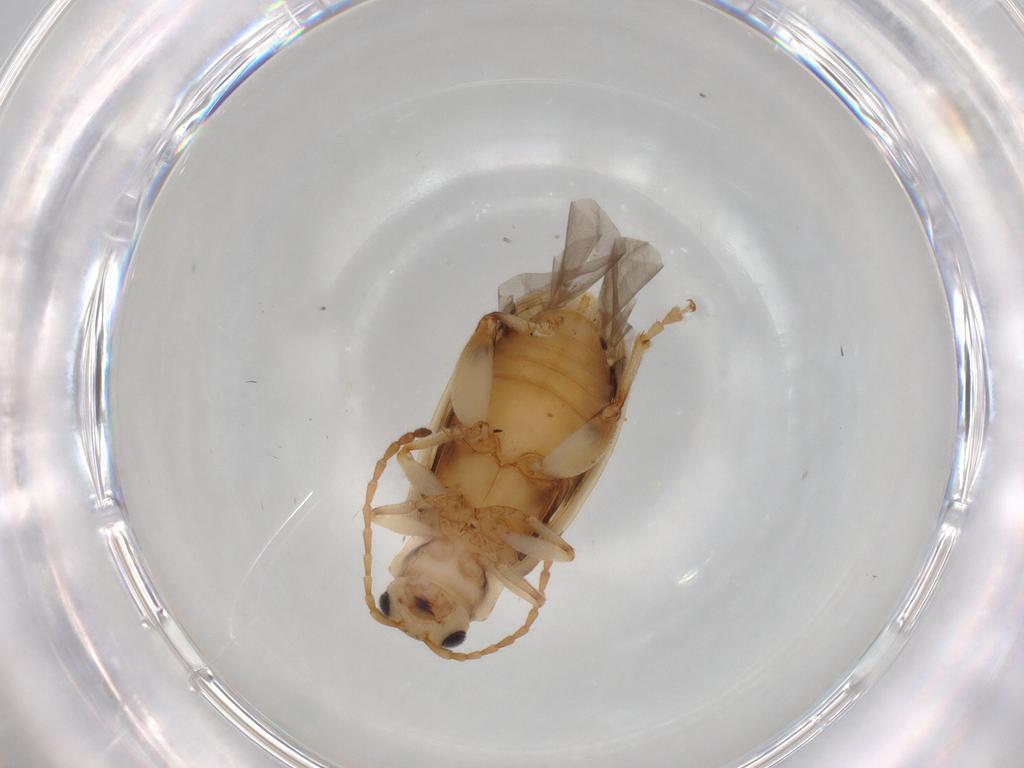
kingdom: Animalia
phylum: Arthropoda
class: Insecta
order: Coleoptera
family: Chrysomelidae
